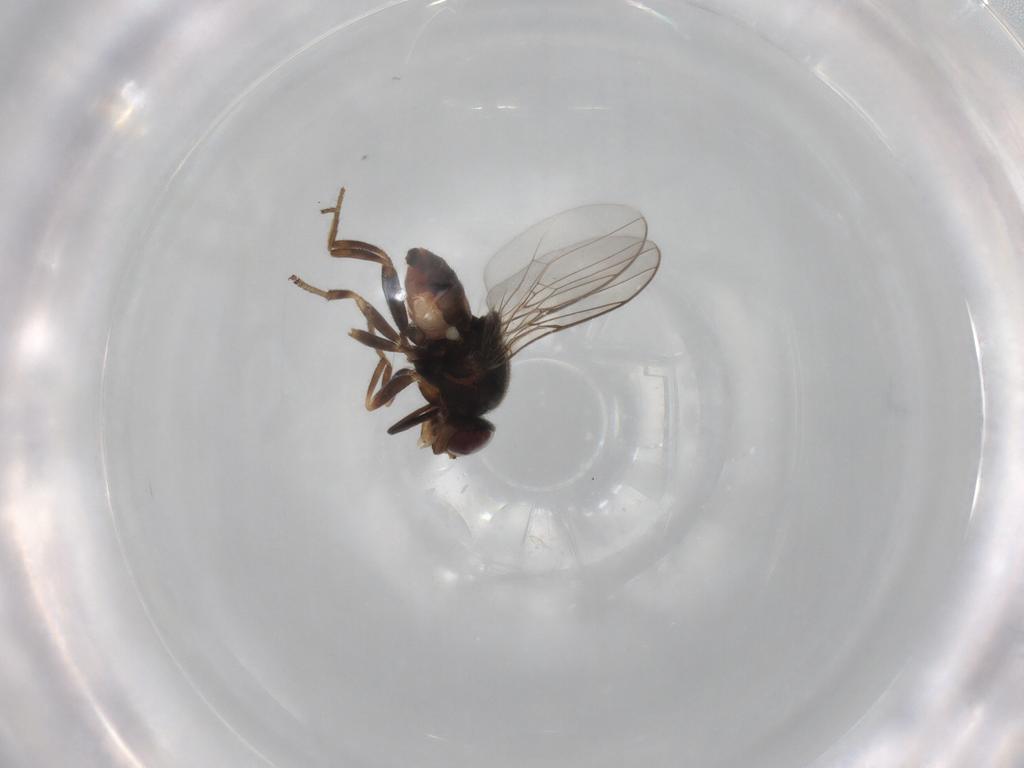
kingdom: Animalia
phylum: Arthropoda
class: Insecta
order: Diptera
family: Chloropidae
